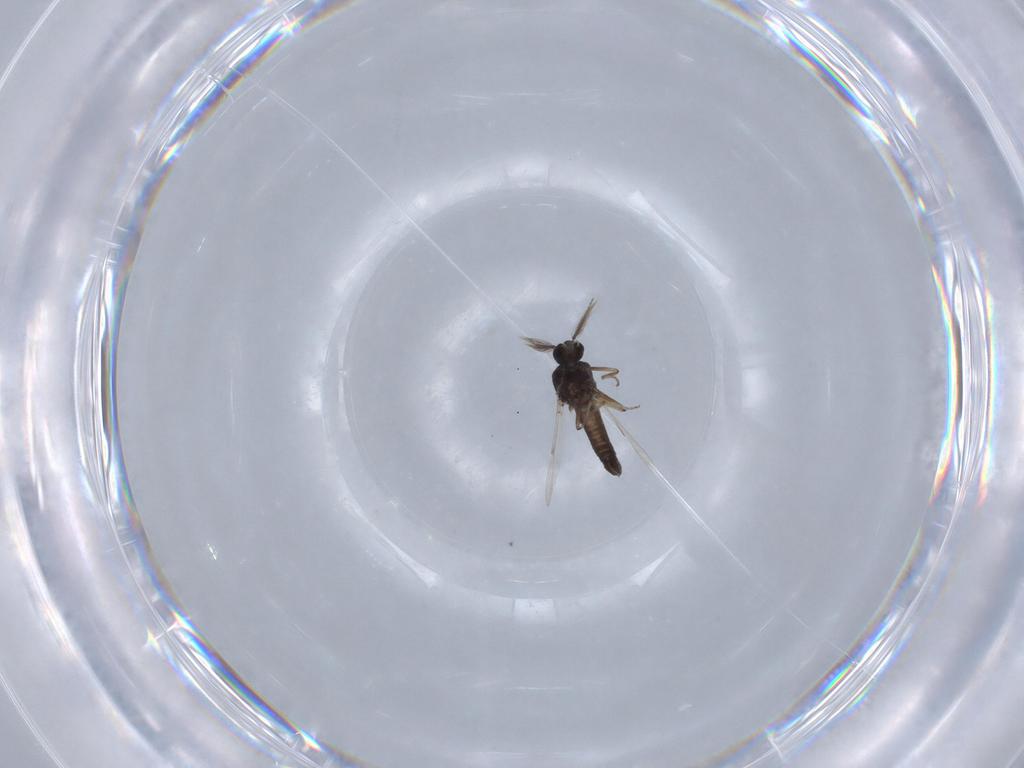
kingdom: Animalia
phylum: Arthropoda
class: Insecta
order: Diptera
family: Ceratopogonidae
